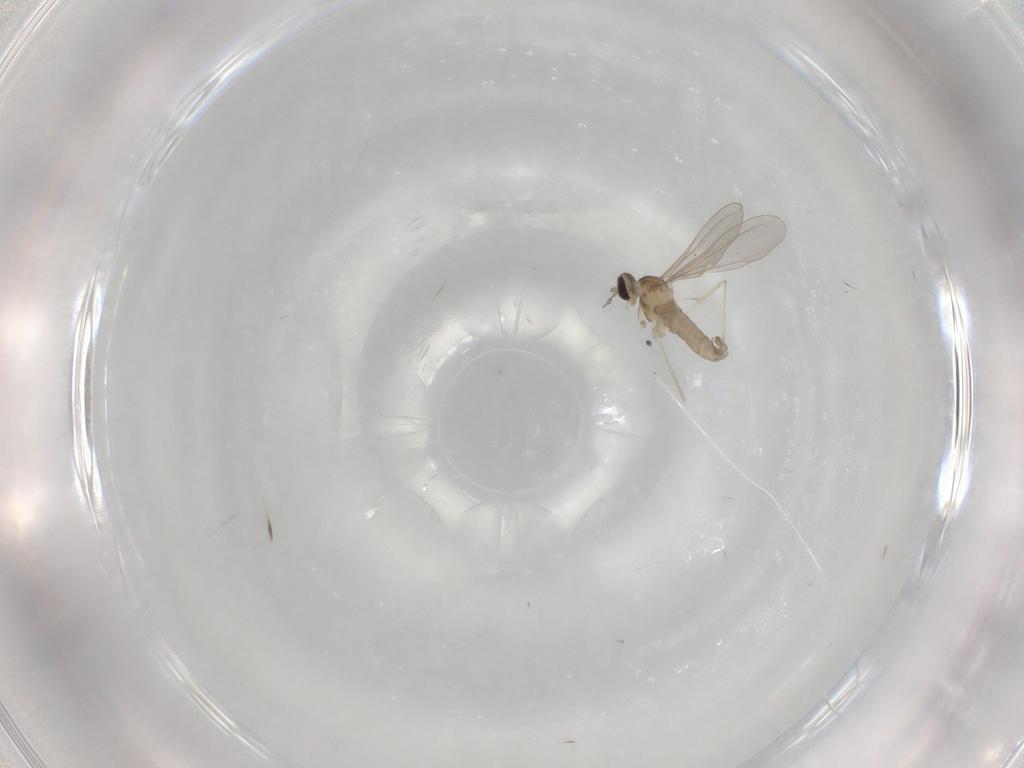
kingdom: Animalia
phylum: Arthropoda
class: Insecta
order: Diptera
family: Cecidomyiidae
